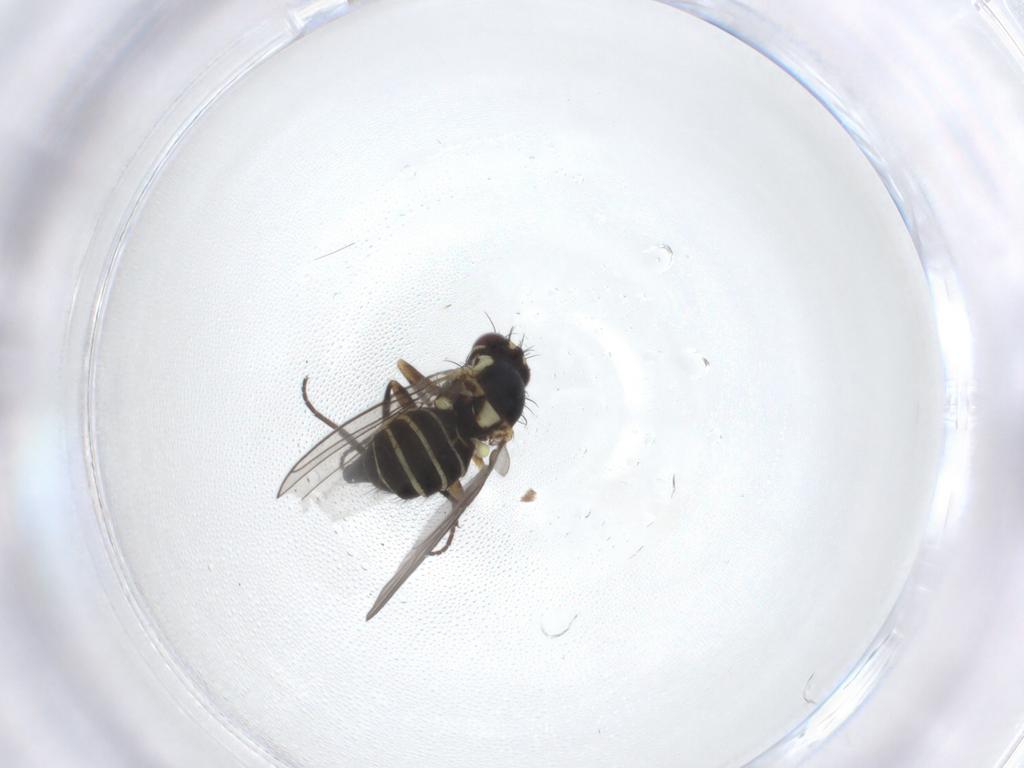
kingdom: Animalia
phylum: Arthropoda
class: Insecta
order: Diptera
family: Agromyzidae
